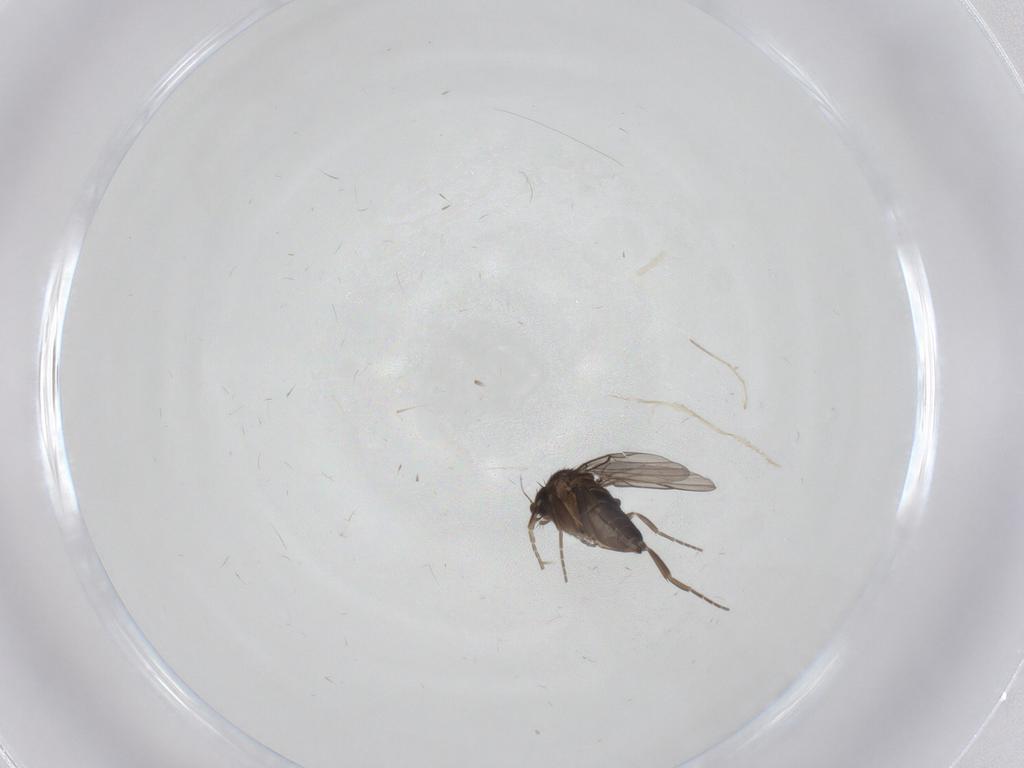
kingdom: Animalia
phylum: Arthropoda
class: Insecta
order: Diptera
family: Phoridae
